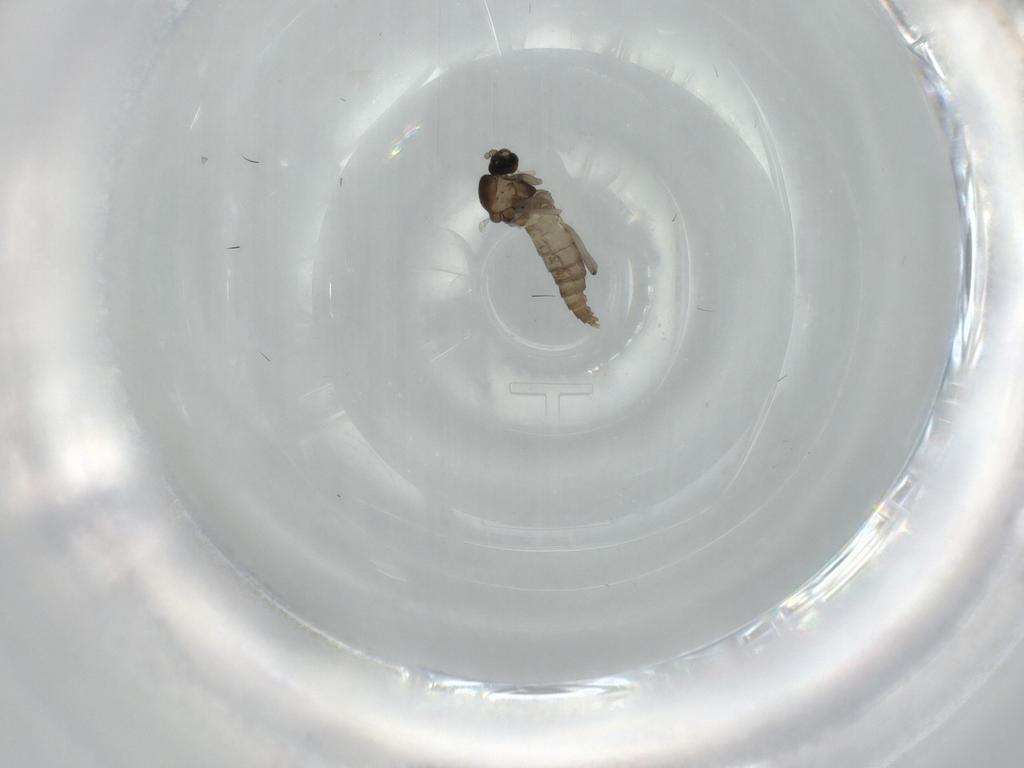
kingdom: Animalia
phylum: Arthropoda
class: Insecta
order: Diptera
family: Cecidomyiidae
